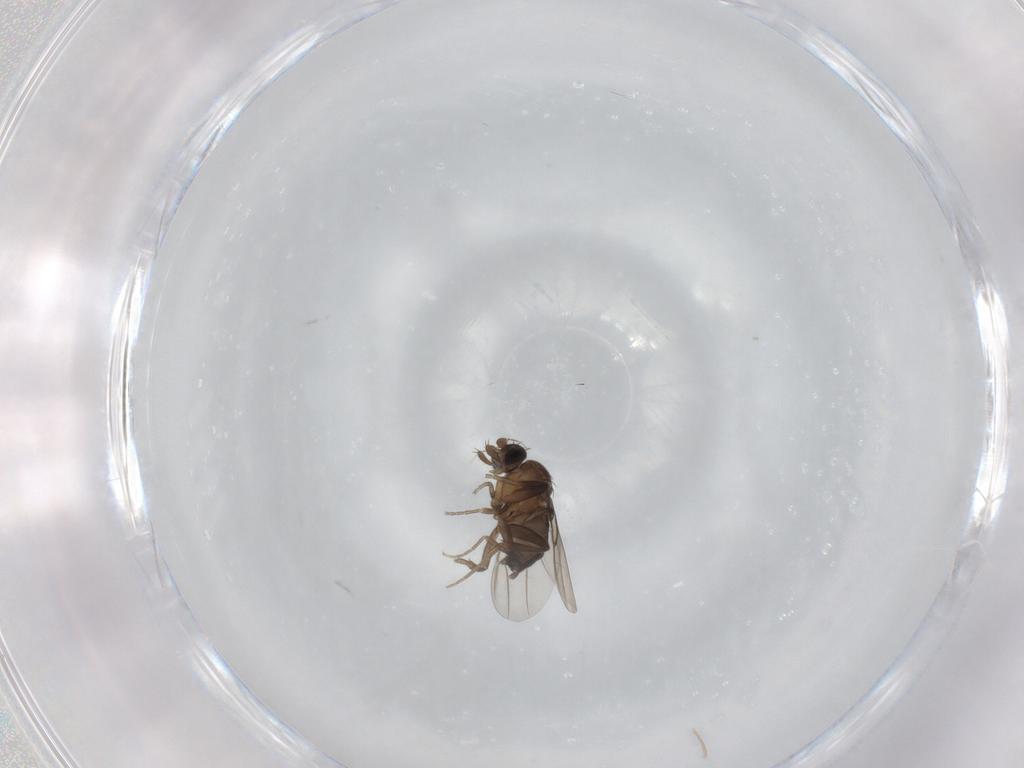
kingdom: Animalia
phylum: Arthropoda
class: Insecta
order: Diptera
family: Phoridae
